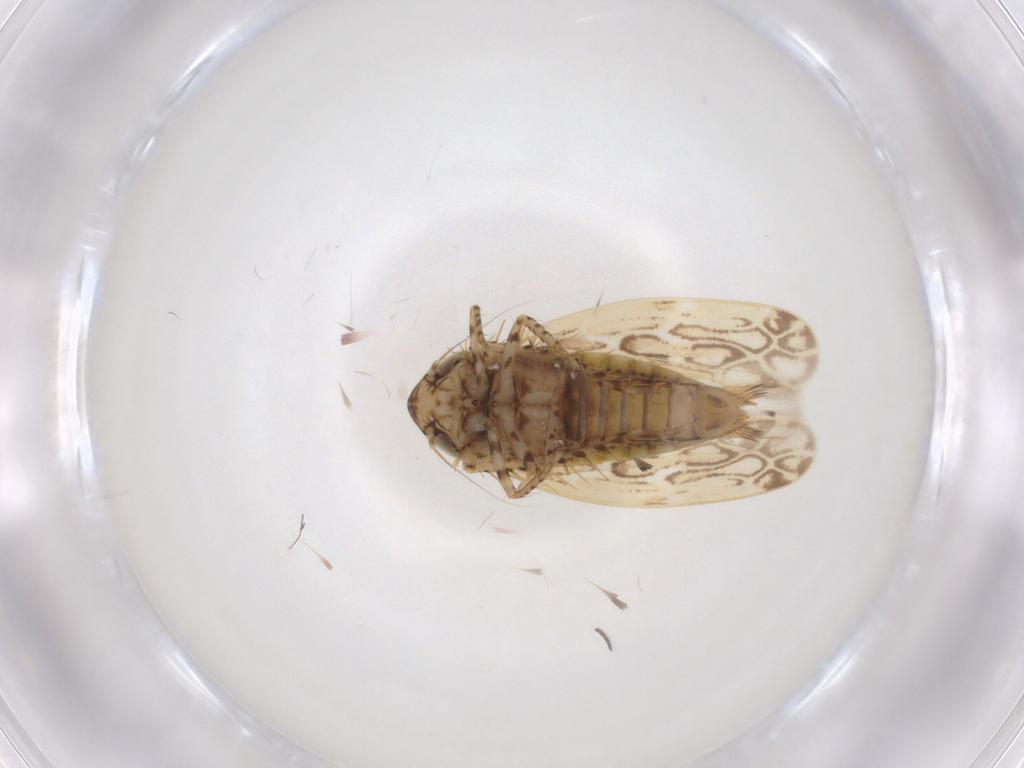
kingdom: Animalia
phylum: Arthropoda
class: Insecta
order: Hemiptera
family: Cicadellidae
